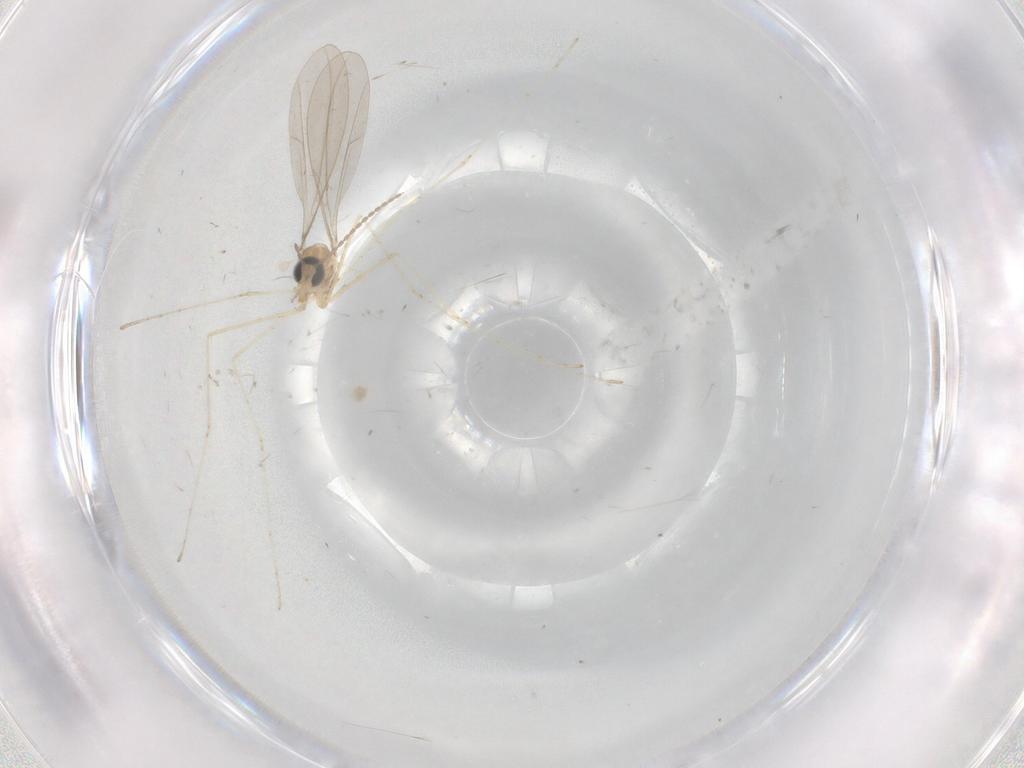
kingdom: Animalia
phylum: Arthropoda
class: Insecta
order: Diptera
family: Cecidomyiidae
